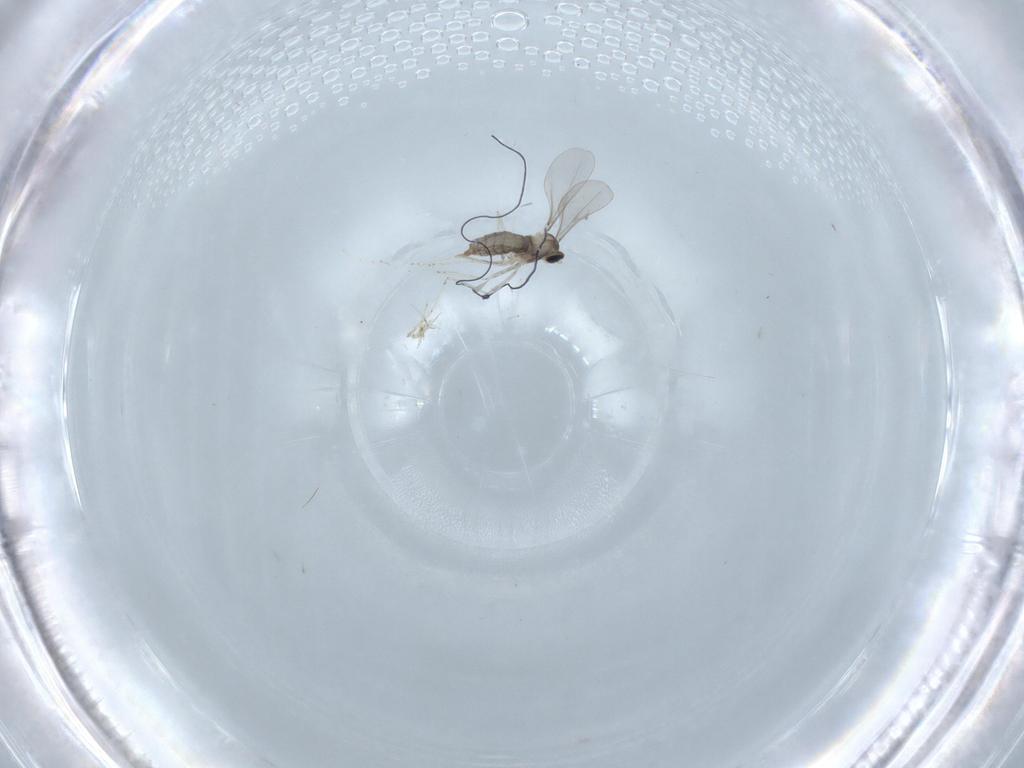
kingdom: Animalia
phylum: Arthropoda
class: Insecta
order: Diptera
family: Cecidomyiidae
